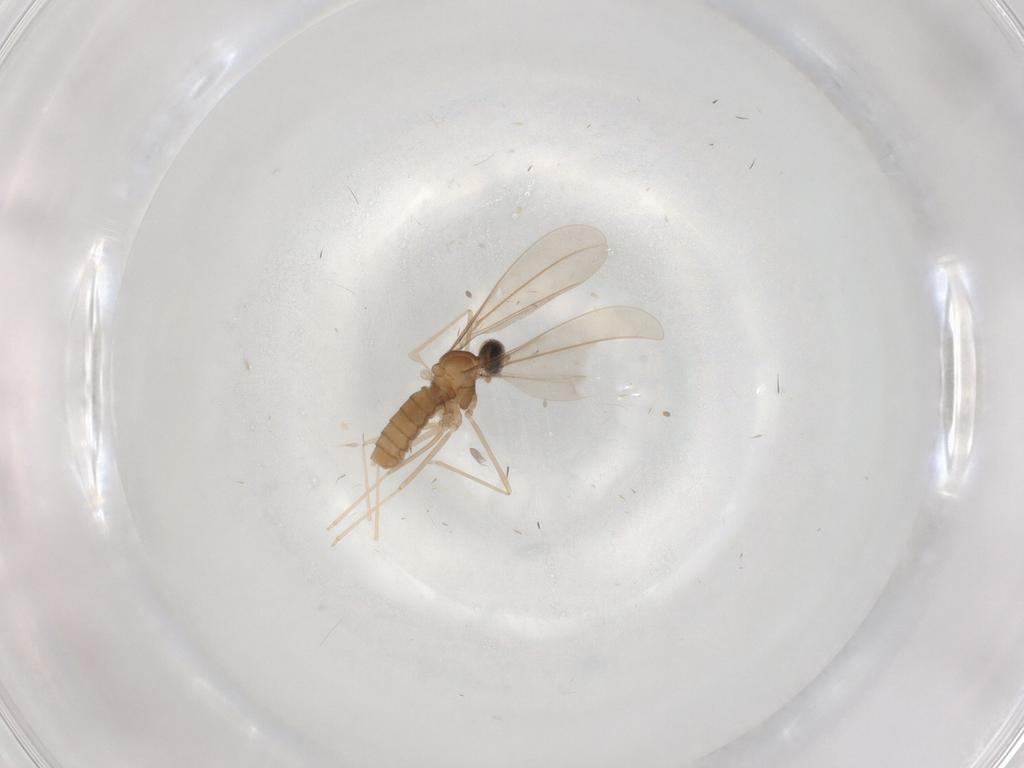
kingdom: Animalia
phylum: Arthropoda
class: Insecta
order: Diptera
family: Cecidomyiidae
